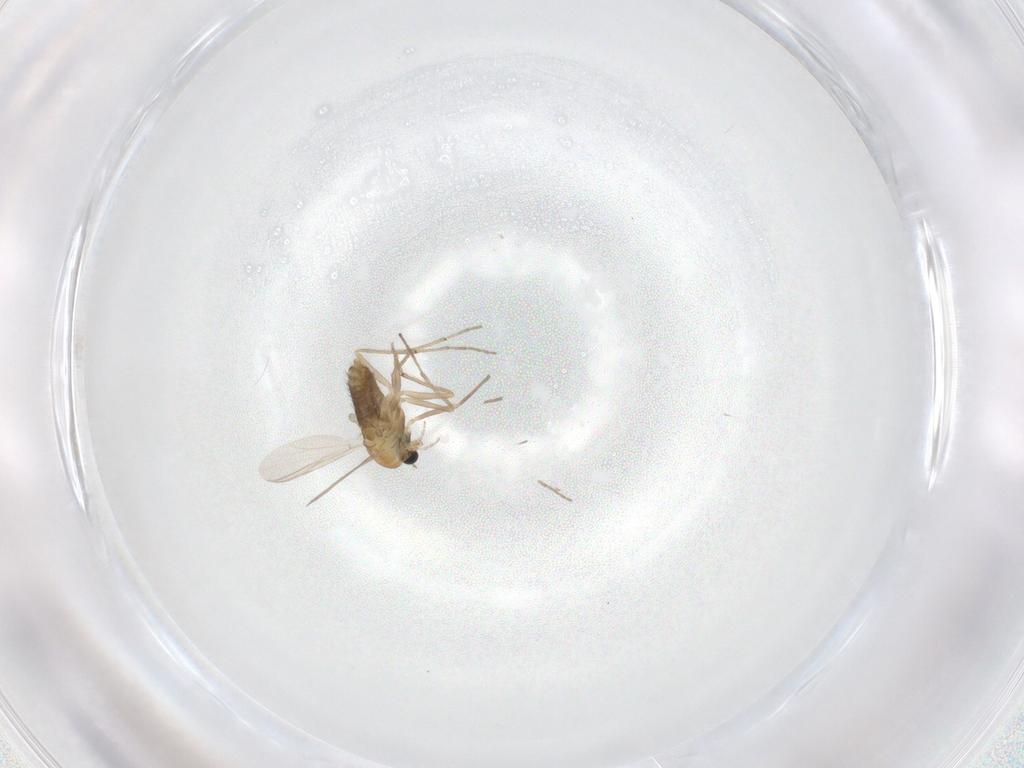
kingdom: Animalia
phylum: Arthropoda
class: Insecta
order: Diptera
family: Chironomidae
